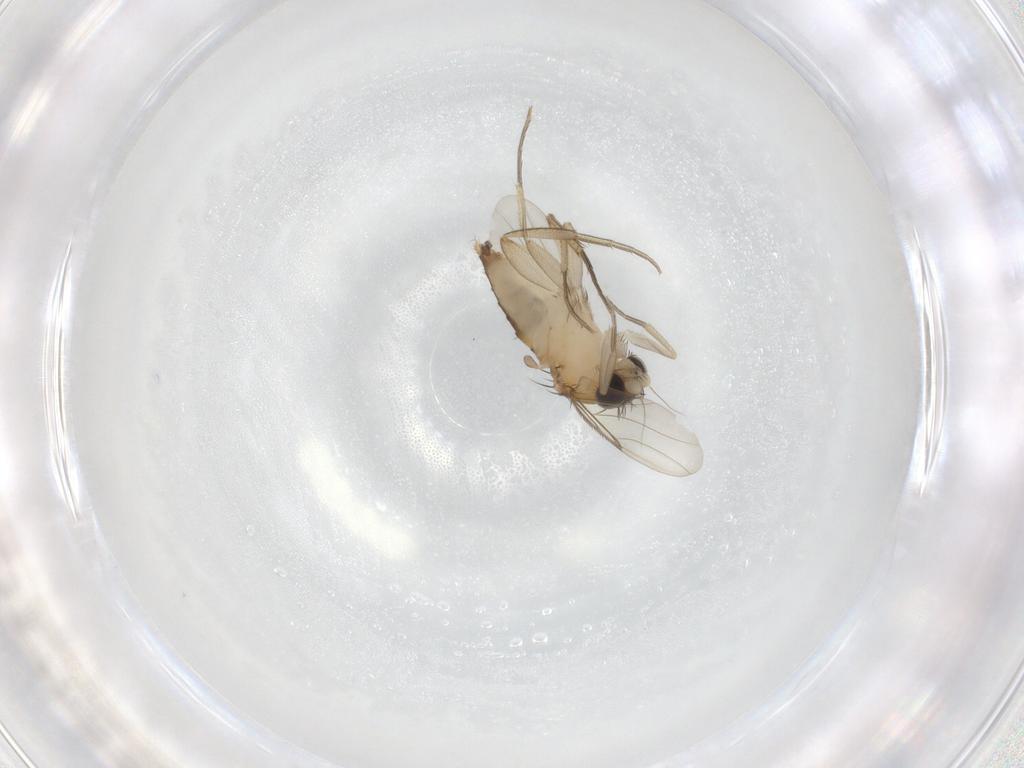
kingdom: Animalia
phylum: Arthropoda
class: Insecta
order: Diptera
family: Phoridae
